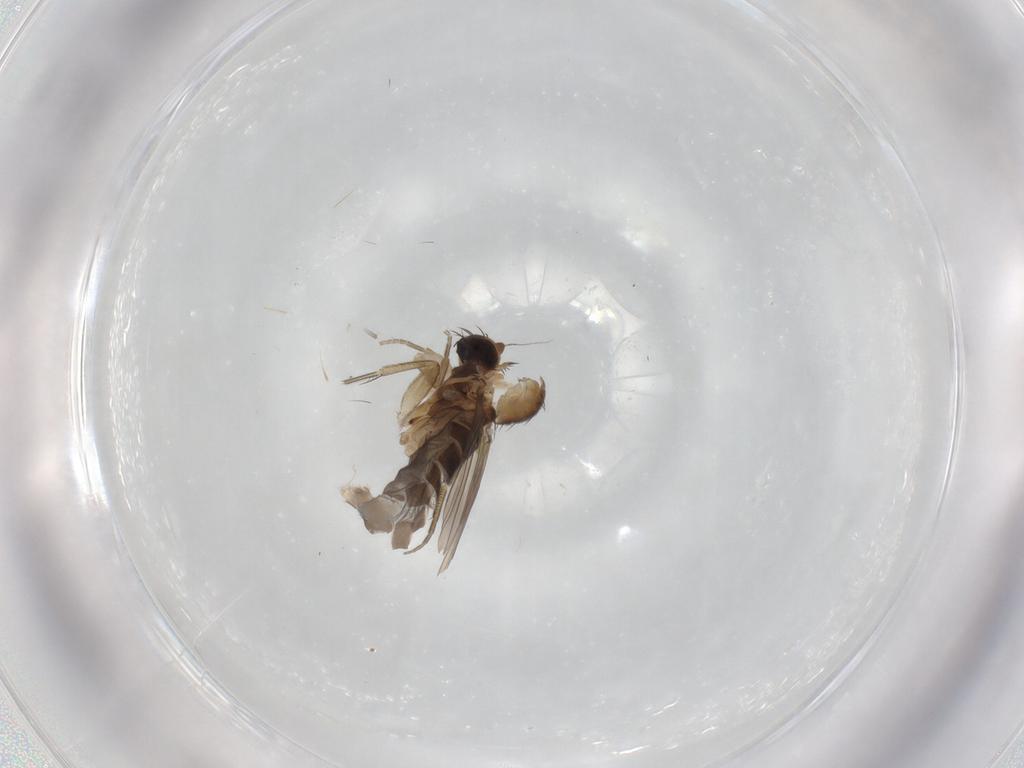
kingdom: Animalia
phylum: Arthropoda
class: Insecta
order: Diptera
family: Phoridae
